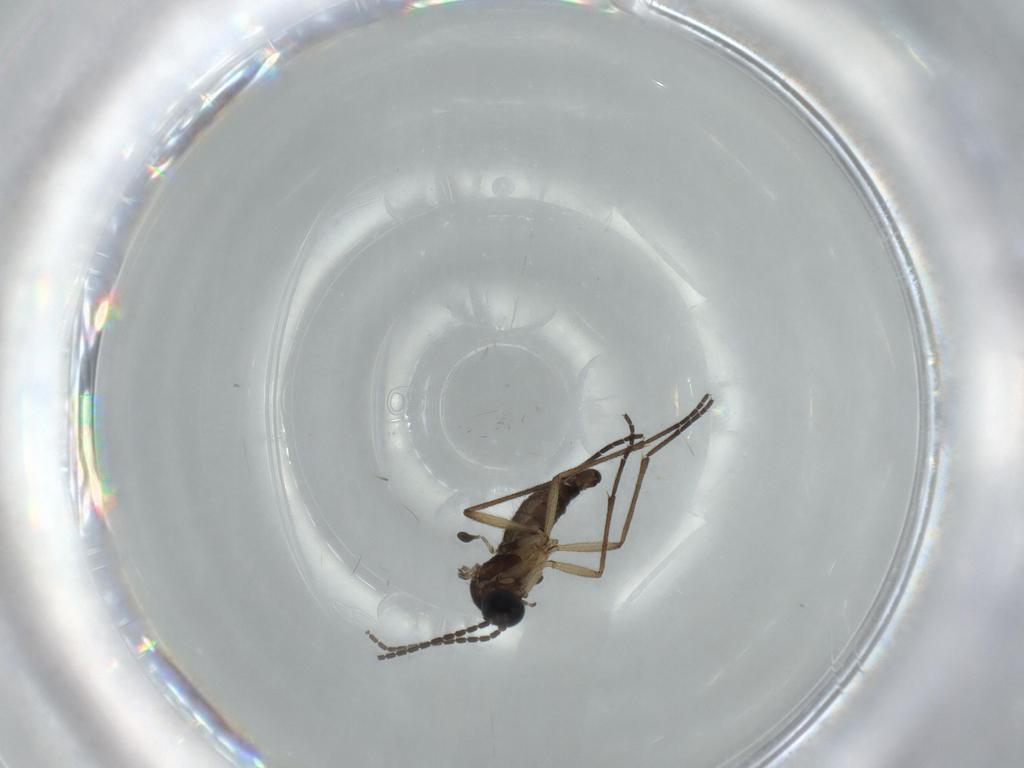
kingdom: Animalia
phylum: Arthropoda
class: Insecta
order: Diptera
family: Sciaridae
